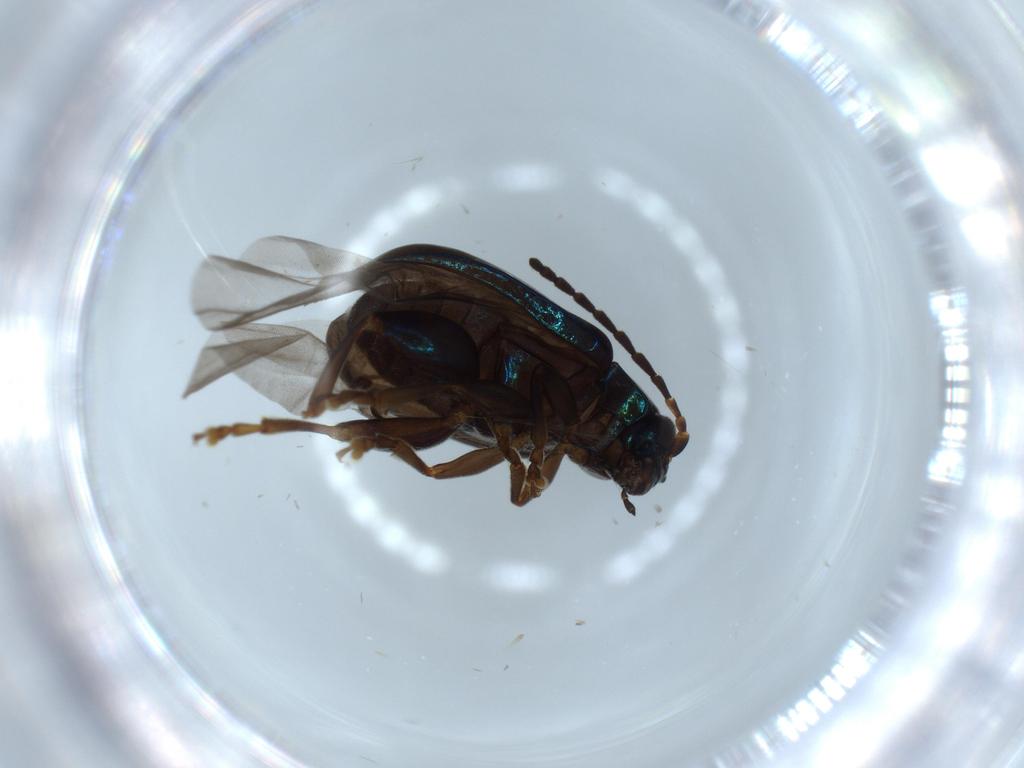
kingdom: Animalia
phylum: Arthropoda
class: Insecta
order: Coleoptera
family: Chrysomelidae
